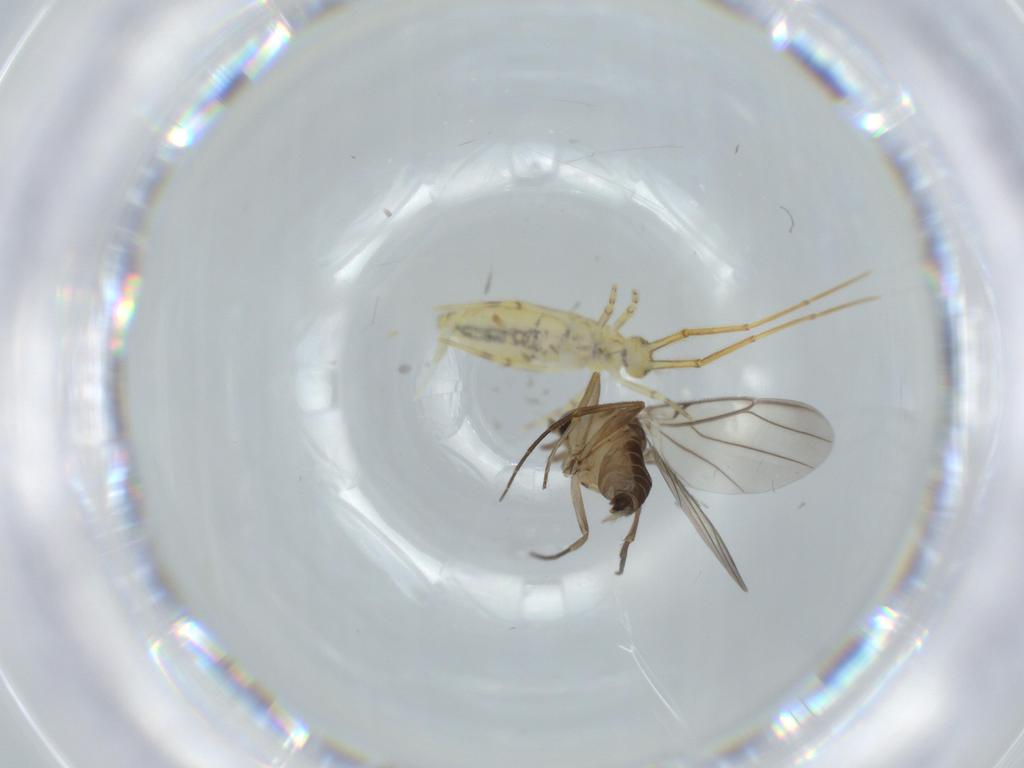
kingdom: Animalia
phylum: Arthropoda
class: Collembola
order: Entomobryomorpha
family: Paronellidae
